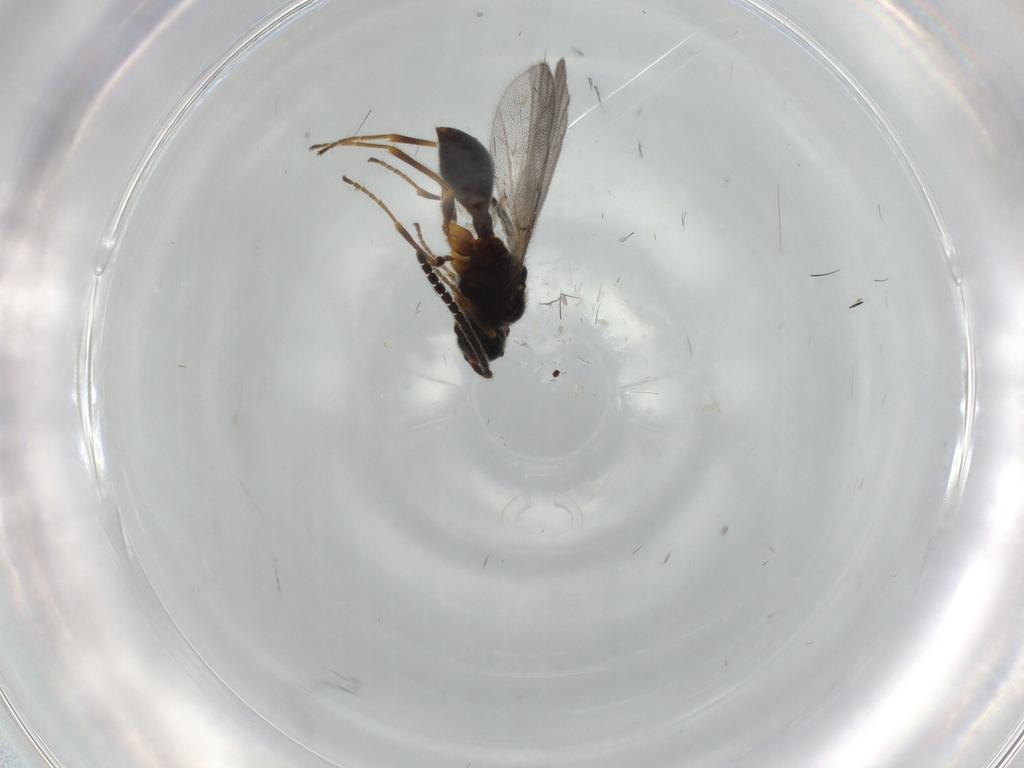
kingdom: Animalia
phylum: Arthropoda
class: Insecta
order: Hymenoptera
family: Diapriidae
